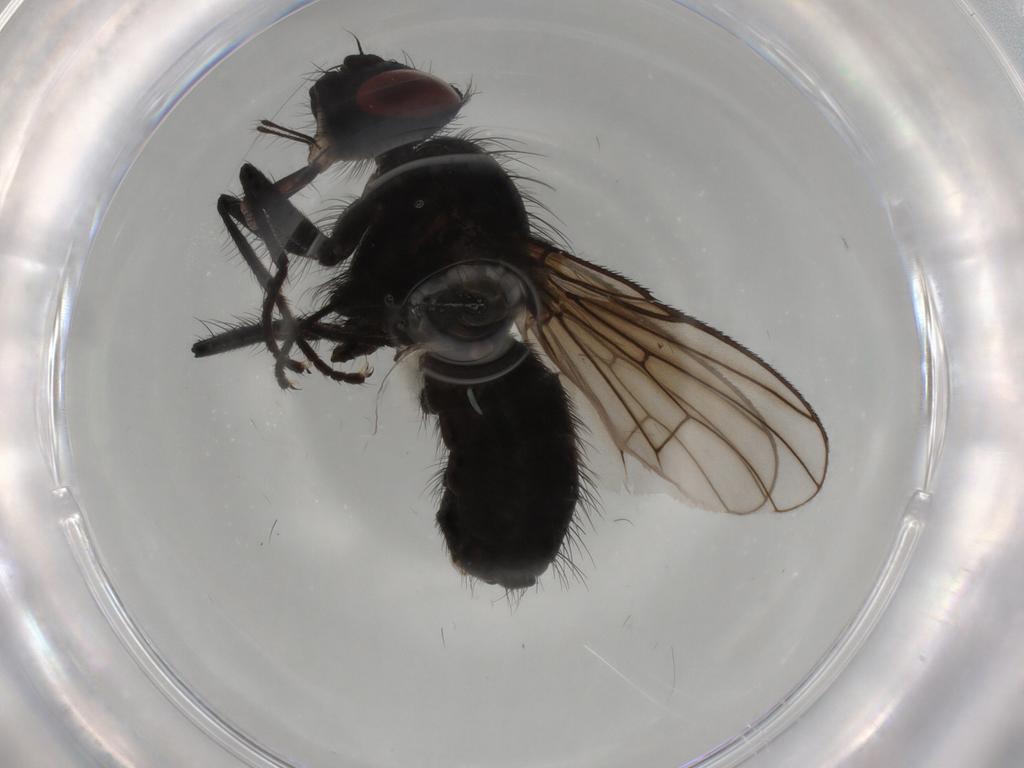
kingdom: Animalia
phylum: Arthropoda
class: Insecta
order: Diptera
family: Muscidae
